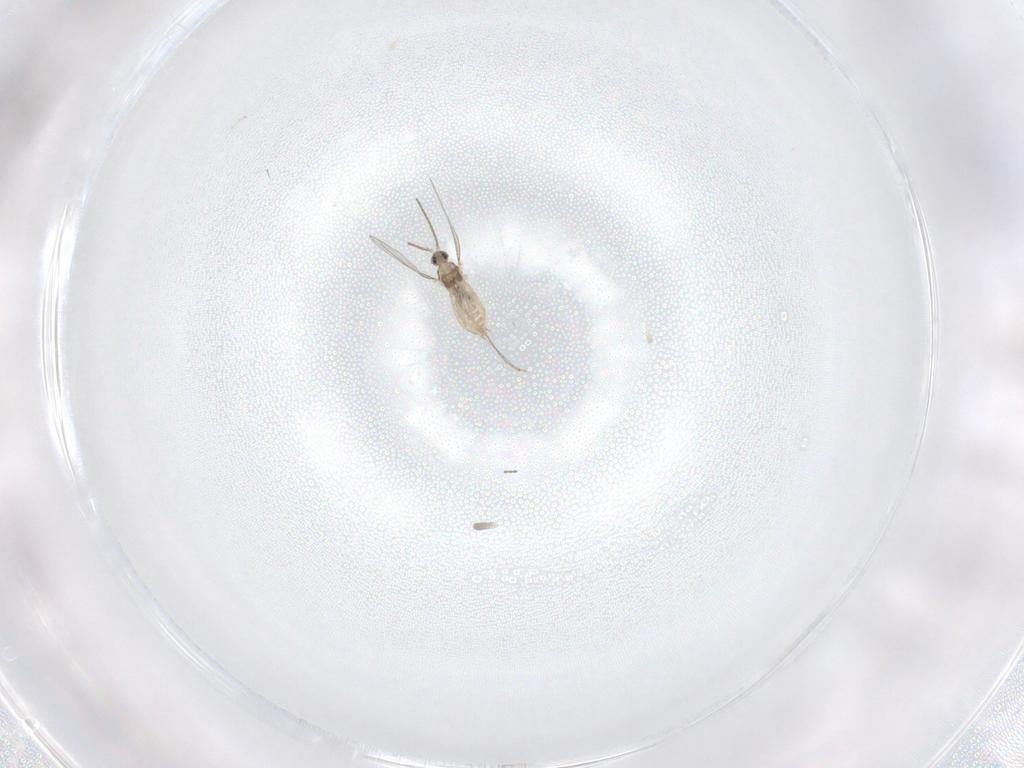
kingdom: Animalia
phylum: Arthropoda
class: Insecta
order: Diptera
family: Cecidomyiidae
